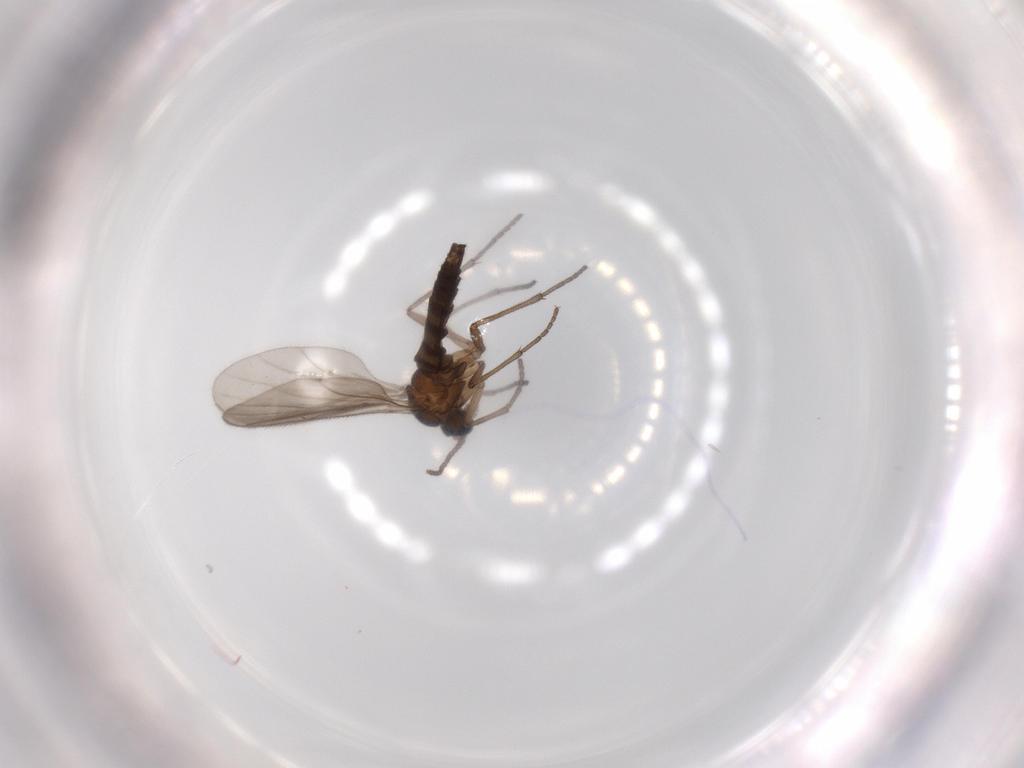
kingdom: Animalia
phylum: Arthropoda
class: Insecta
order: Diptera
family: Sciaridae
